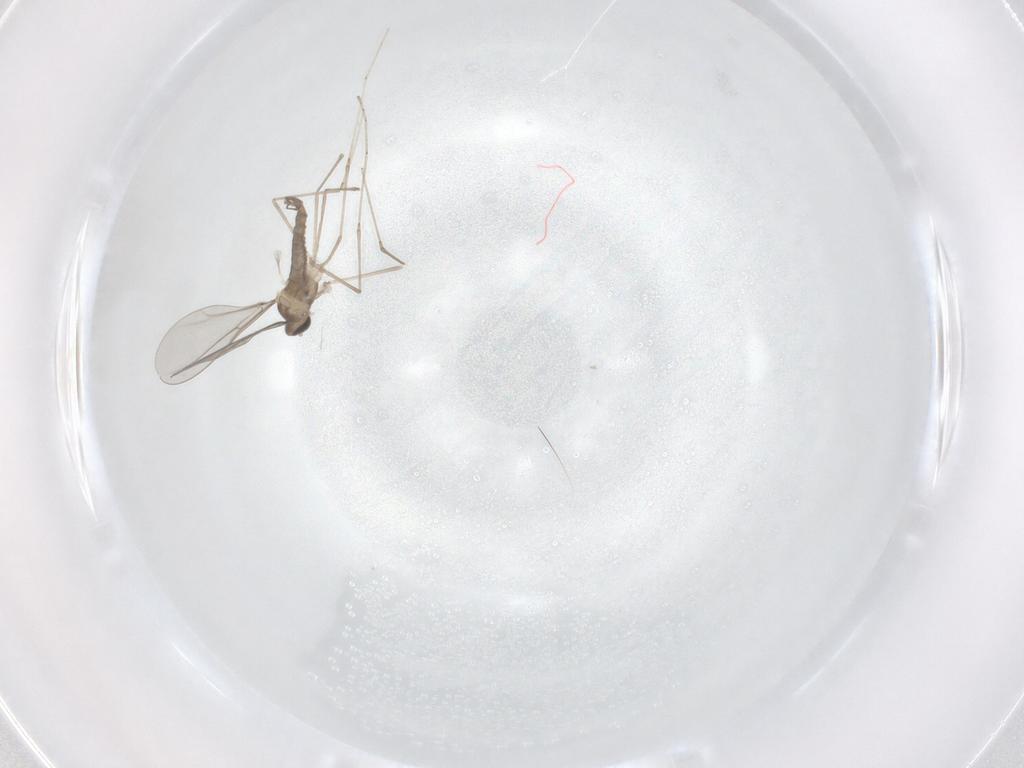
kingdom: Animalia
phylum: Arthropoda
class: Insecta
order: Diptera
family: Cecidomyiidae
